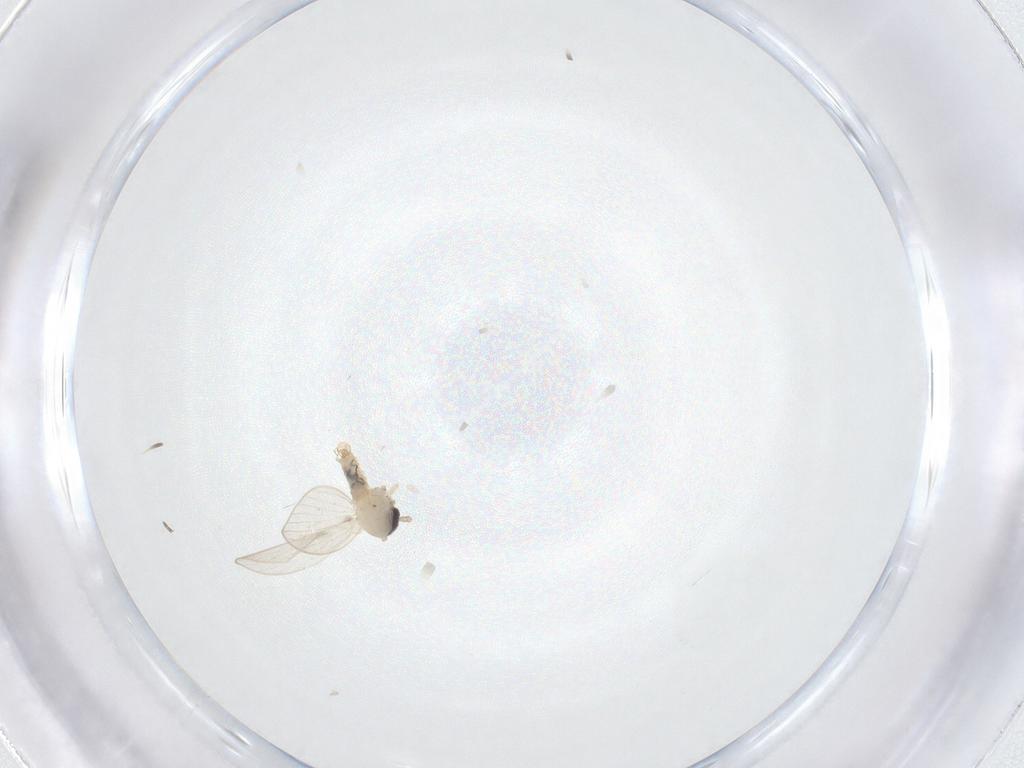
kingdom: Animalia
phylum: Arthropoda
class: Insecta
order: Diptera
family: Psychodidae
